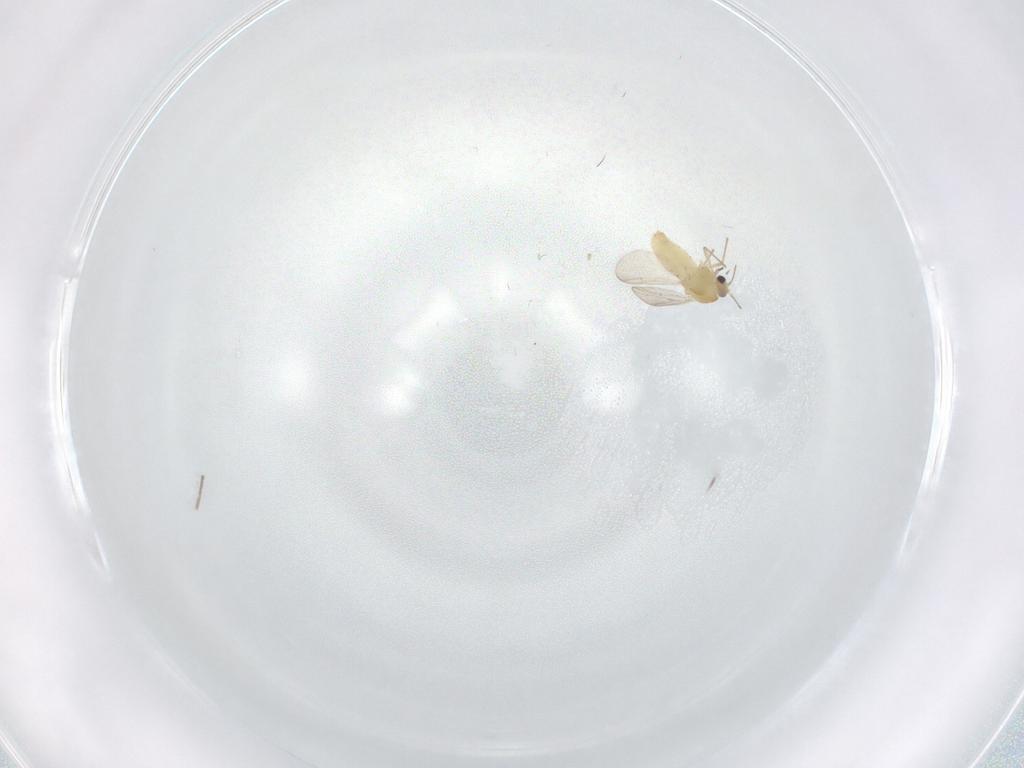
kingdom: Animalia
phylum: Arthropoda
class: Insecta
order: Diptera
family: Chironomidae
